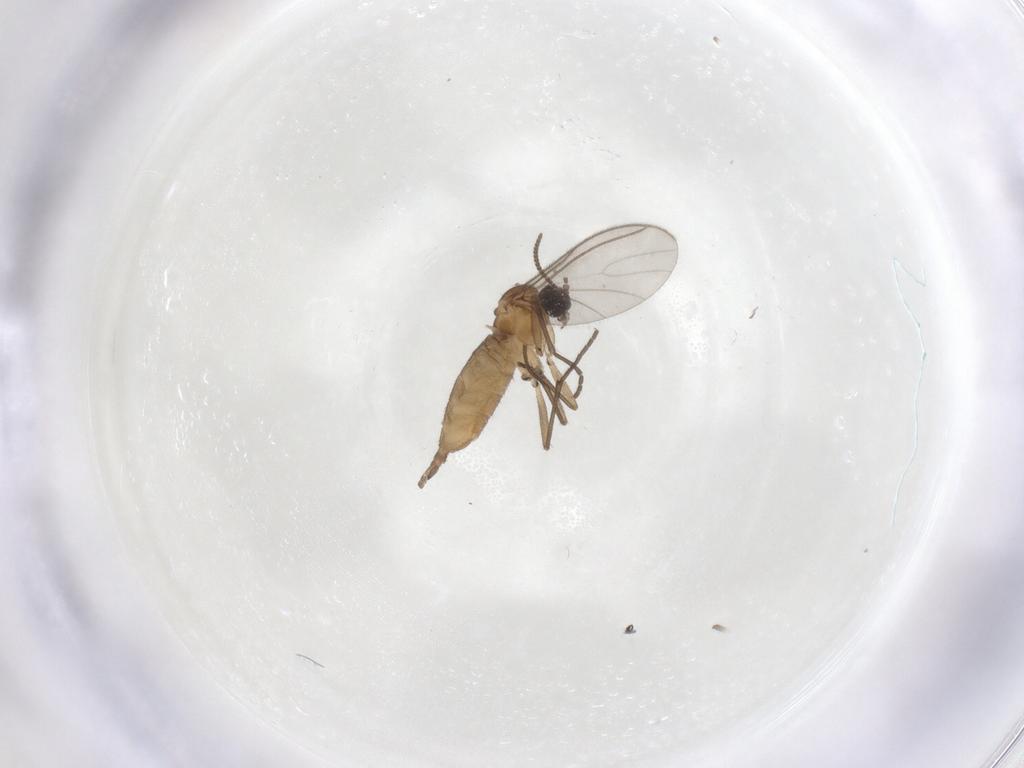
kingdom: Animalia
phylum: Arthropoda
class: Insecta
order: Diptera
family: Sciaridae
